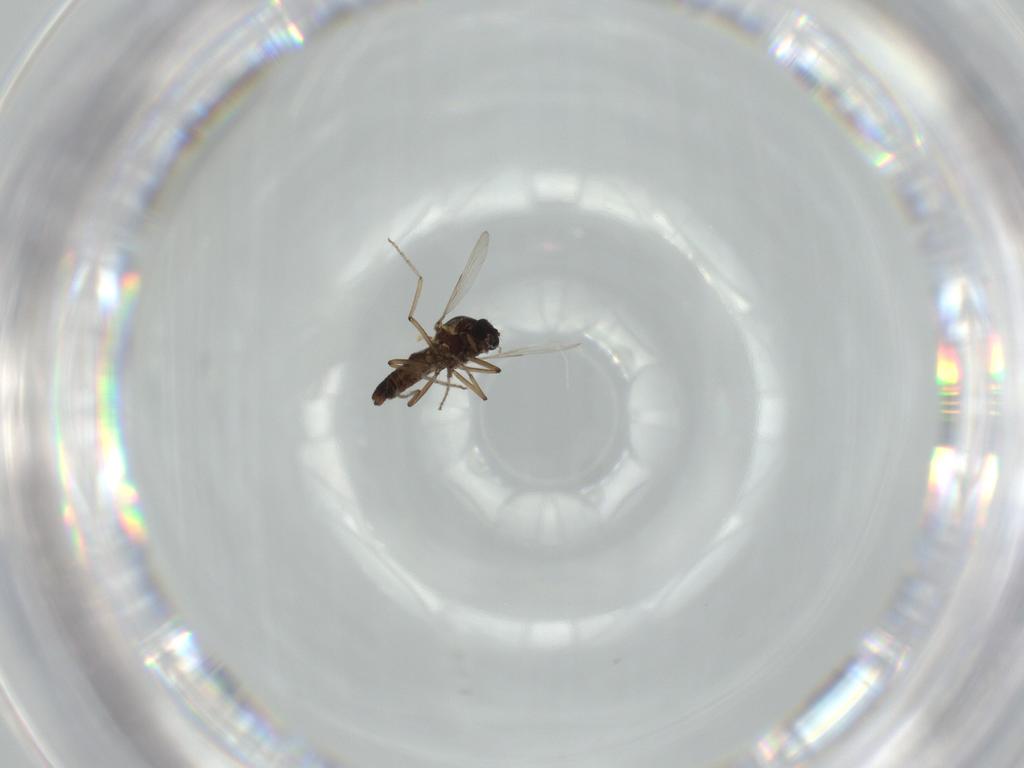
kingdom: Animalia
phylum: Arthropoda
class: Insecta
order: Diptera
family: Ceratopogonidae
